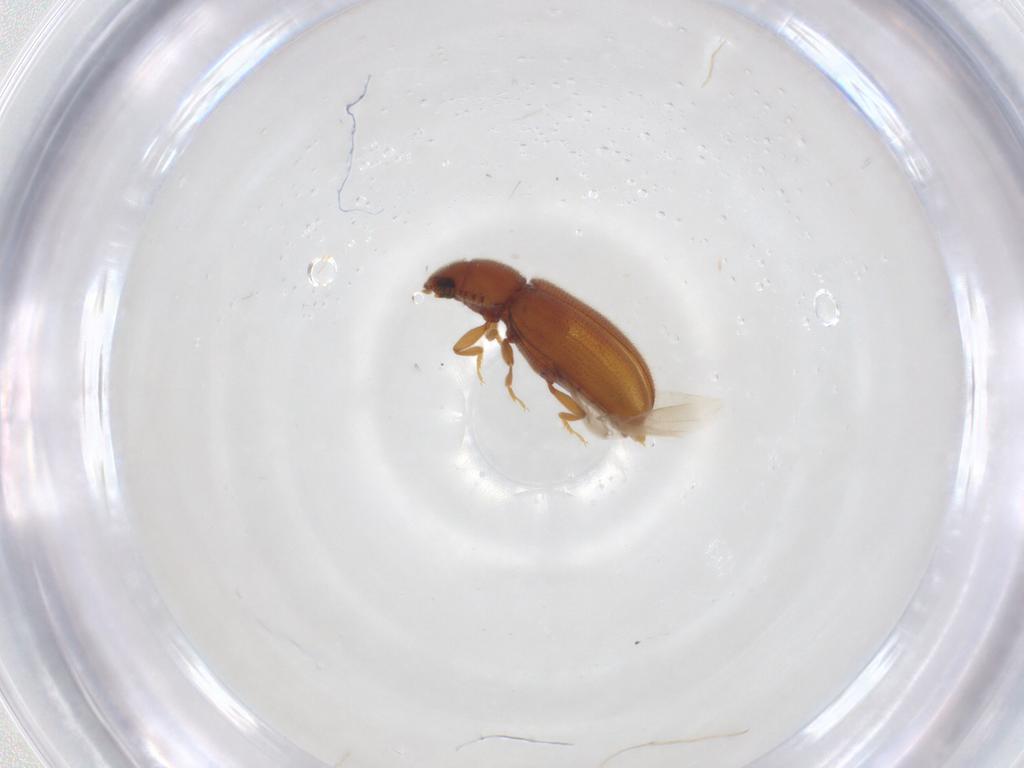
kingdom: Animalia
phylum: Arthropoda
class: Insecta
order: Coleoptera
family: Erotylidae
